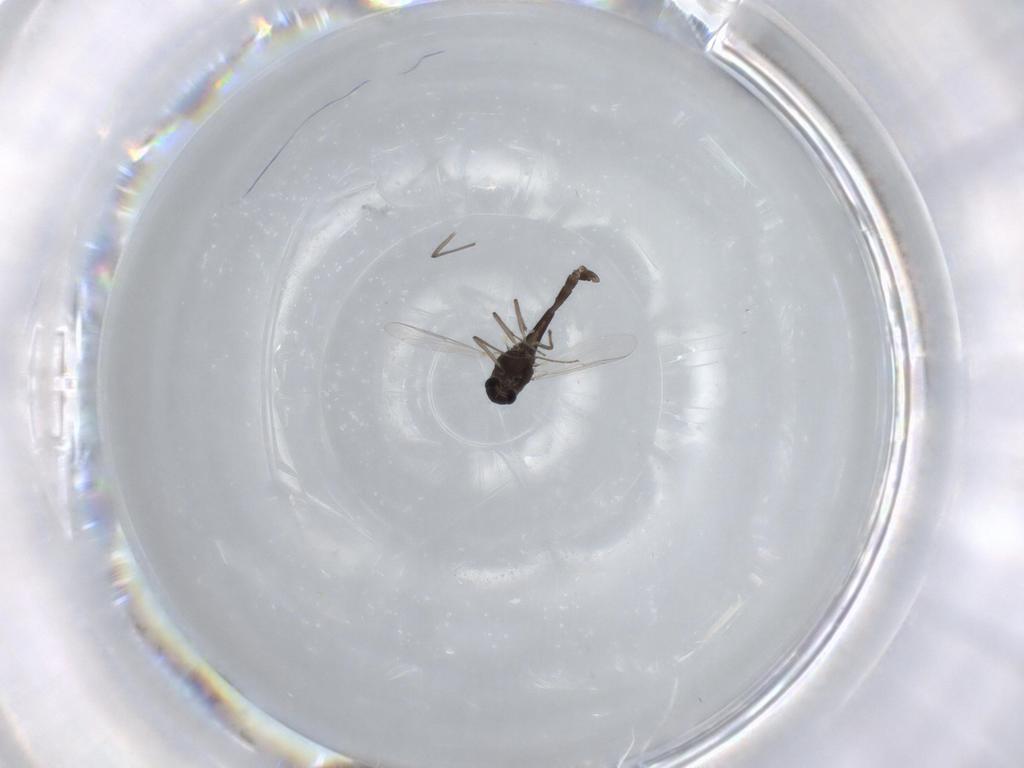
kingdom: Animalia
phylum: Arthropoda
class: Insecta
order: Diptera
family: Chironomidae
